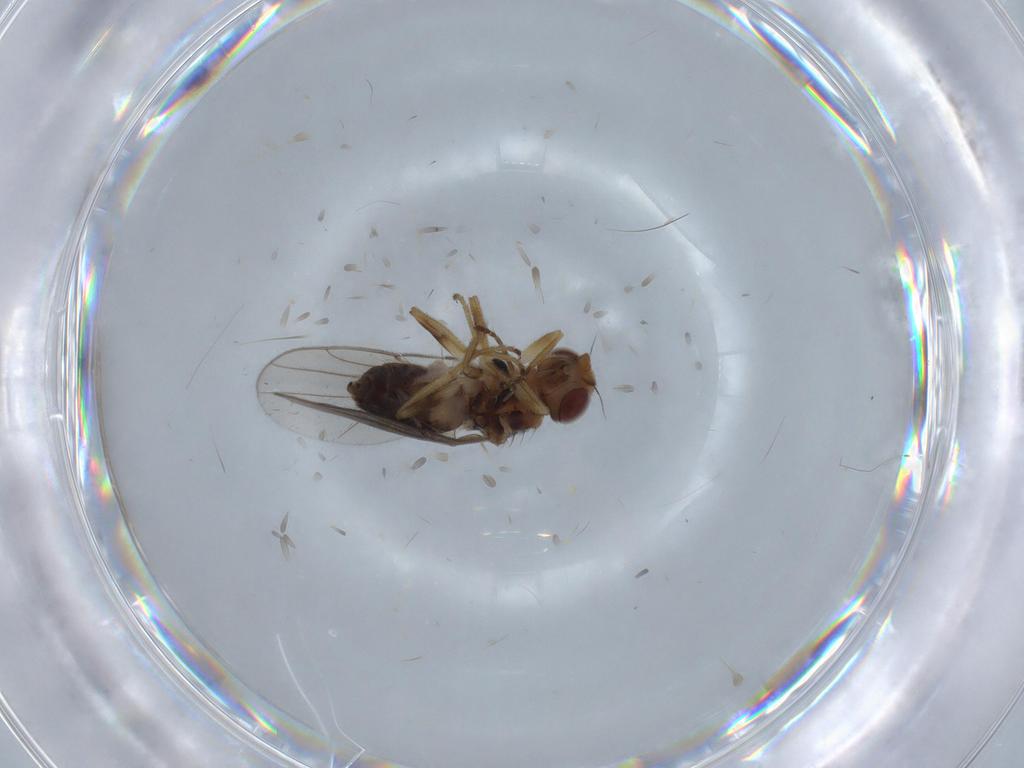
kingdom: Animalia
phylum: Arthropoda
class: Insecta
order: Diptera
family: Chloropidae
